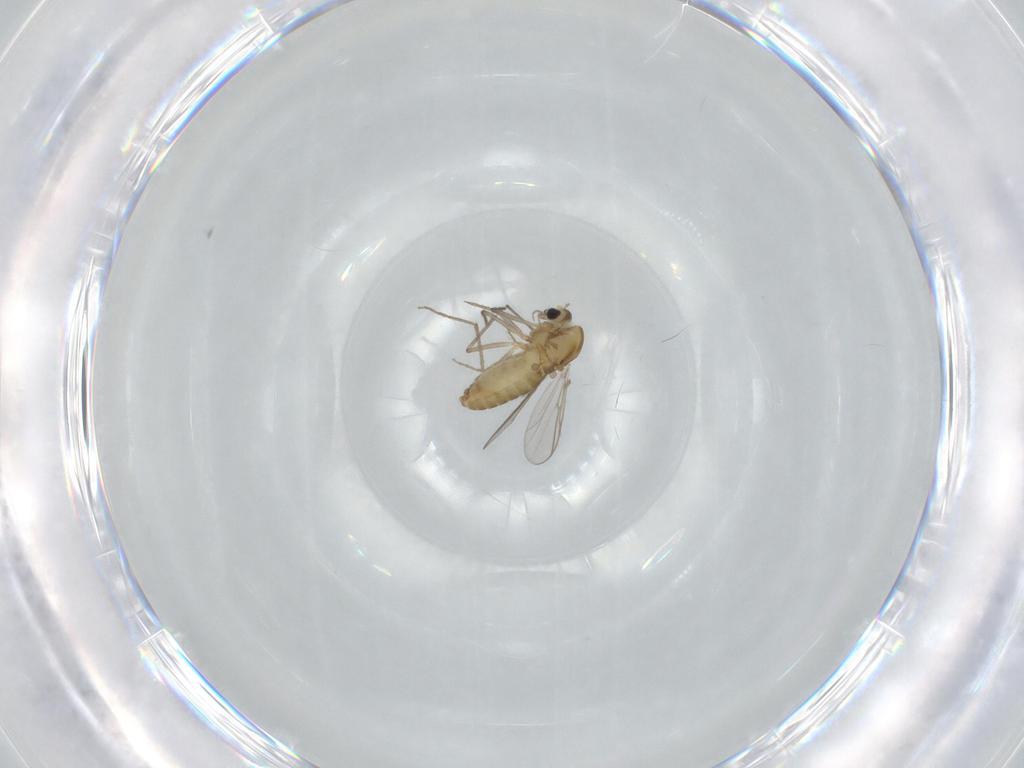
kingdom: Animalia
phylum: Arthropoda
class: Insecta
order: Diptera
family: Chironomidae
